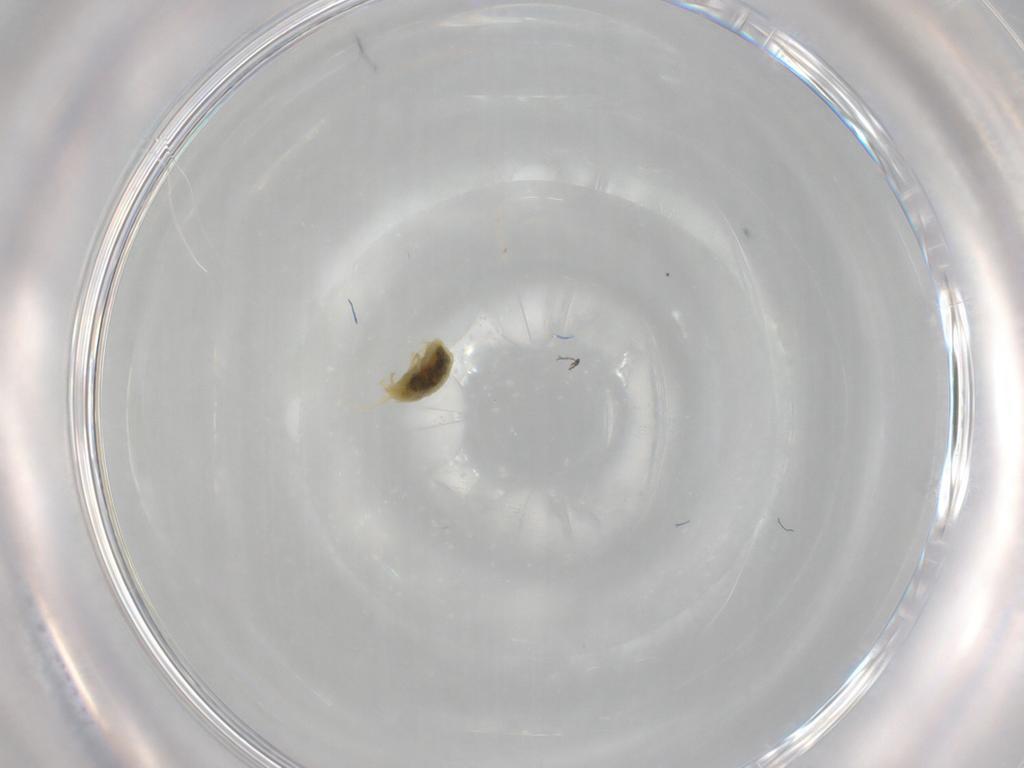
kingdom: Animalia
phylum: Arthropoda
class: Arachnida
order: Trombidiformes
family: Tetranychidae
